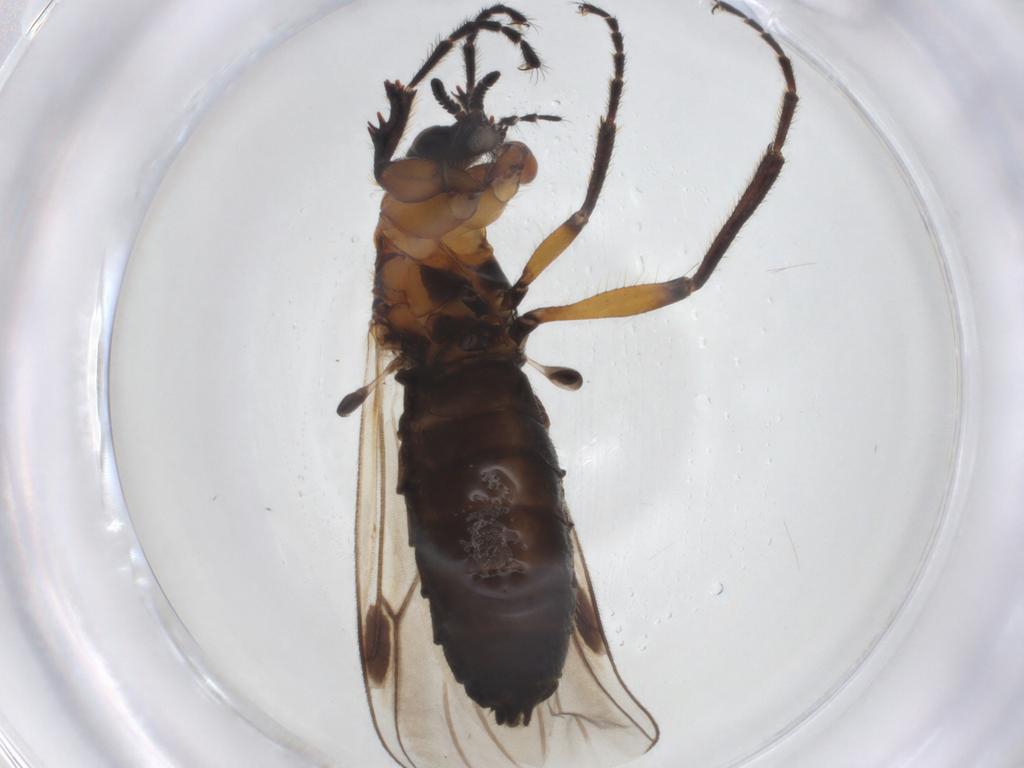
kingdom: Animalia
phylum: Arthropoda
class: Insecta
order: Diptera
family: Bibionidae
